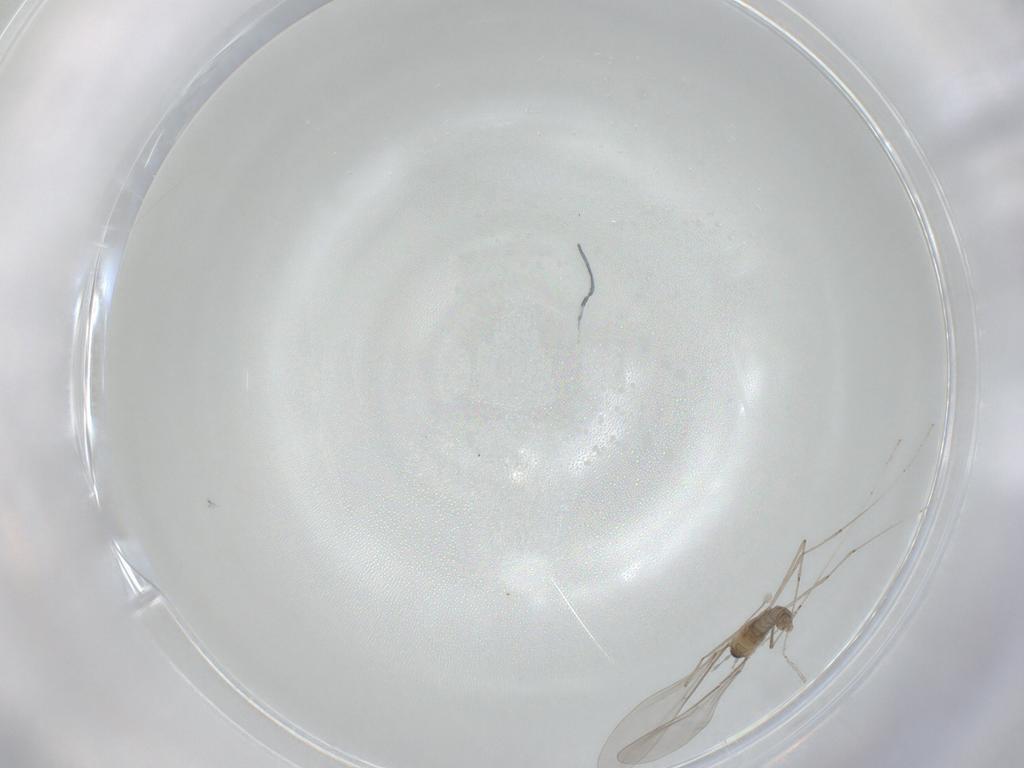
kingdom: Animalia
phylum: Arthropoda
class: Insecta
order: Diptera
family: Cecidomyiidae
